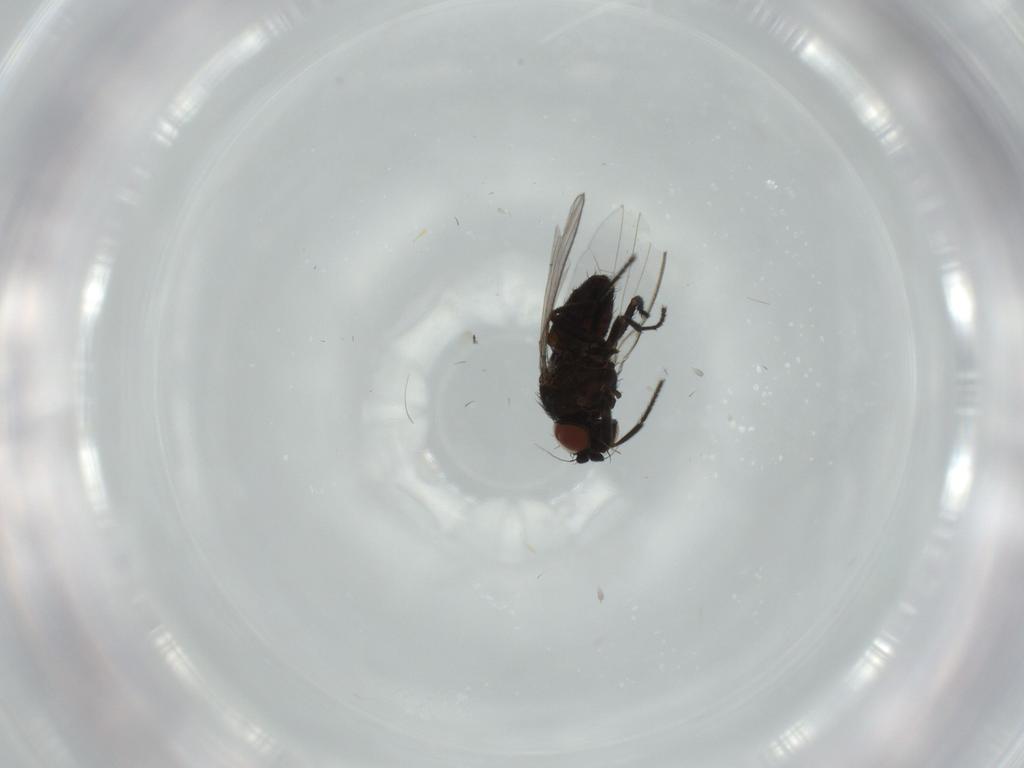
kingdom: Animalia
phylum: Arthropoda
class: Insecta
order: Diptera
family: Milichiidae
